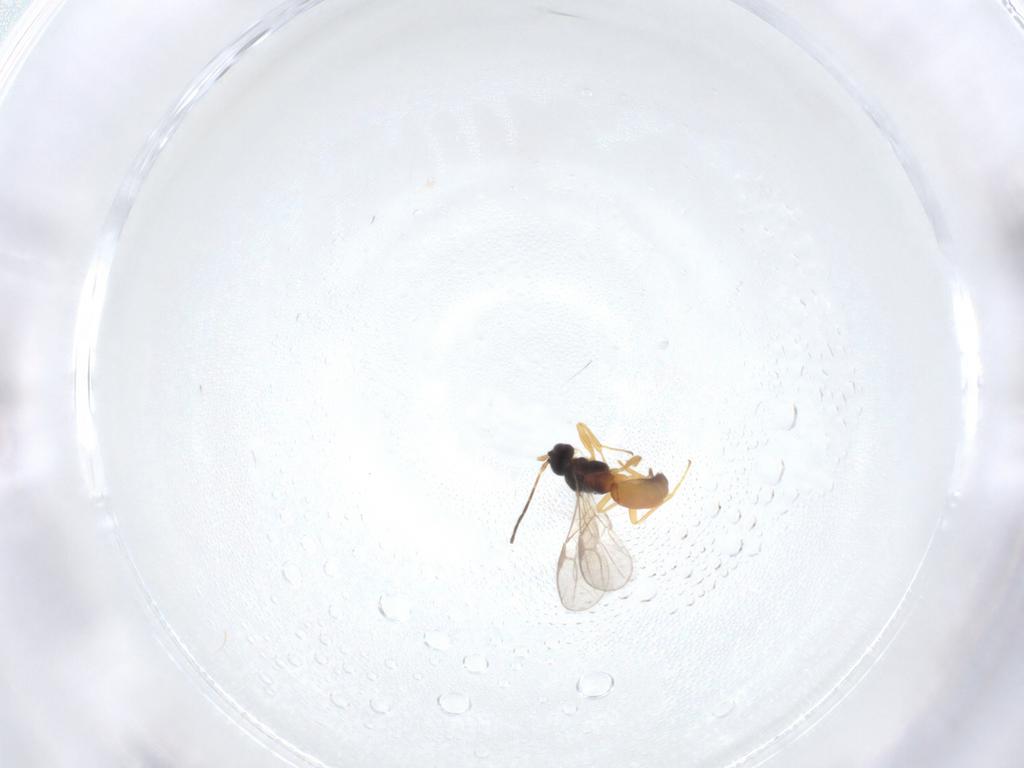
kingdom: Animalia
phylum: Arthropoda
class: Insecta
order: Hymenoptera
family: Braconidae
